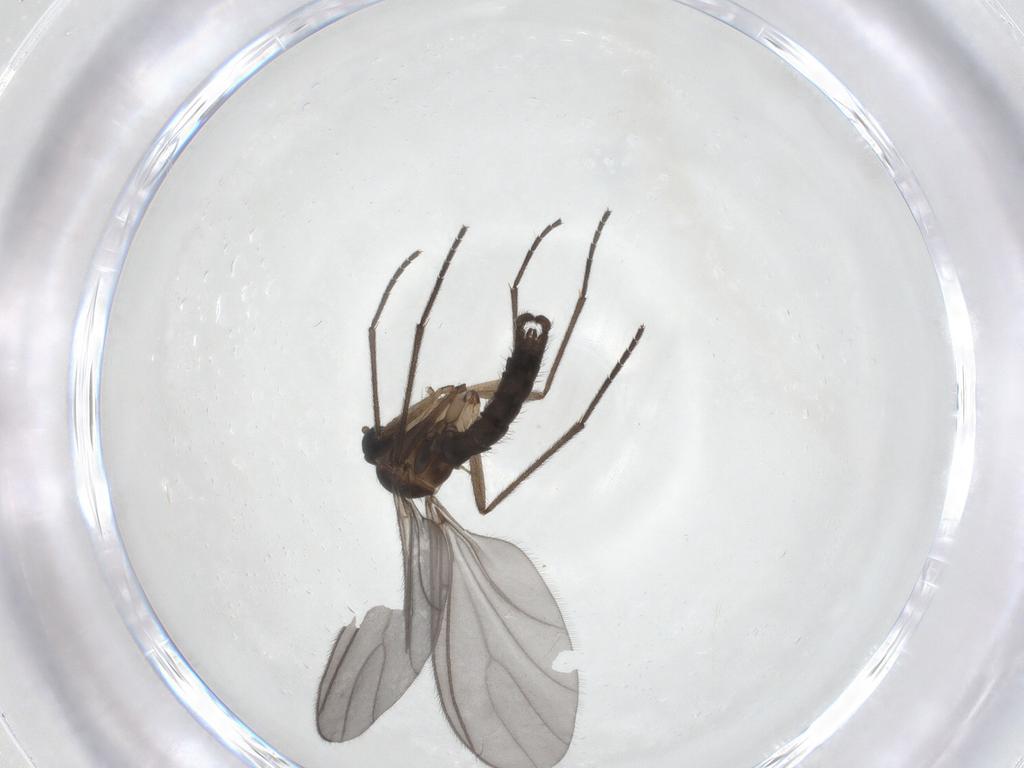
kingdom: Animalia
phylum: Arthropoda
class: Insecta
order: Diptera
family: Sciaridae
